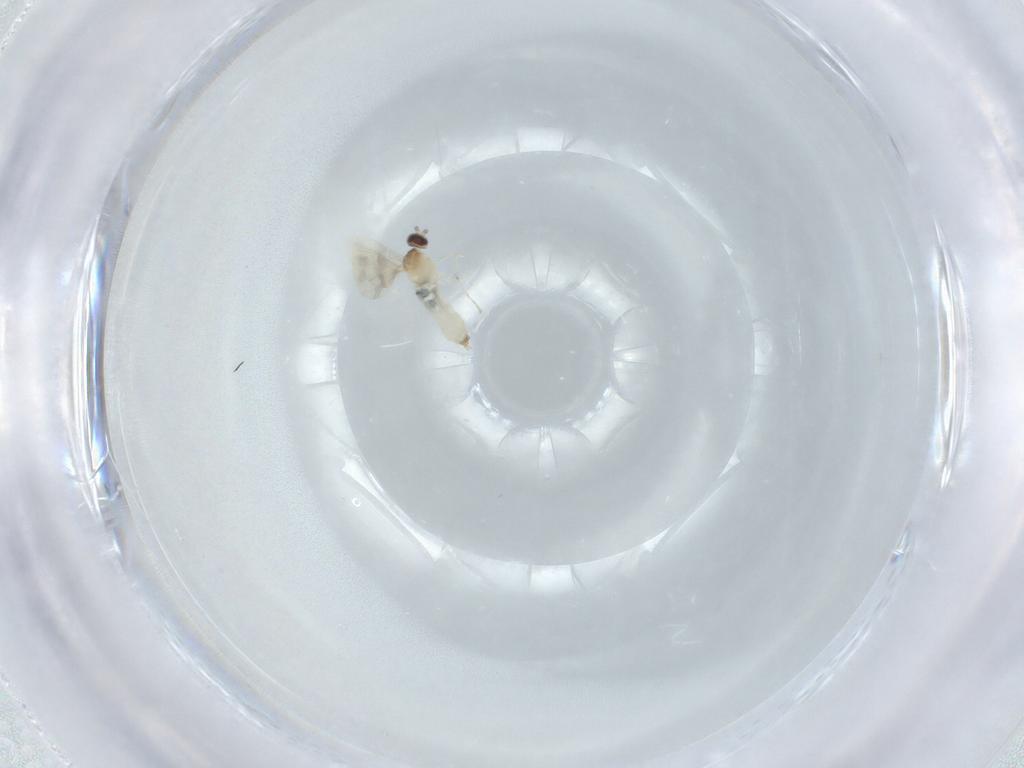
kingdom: Animalia
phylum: Arthropoda
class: Insecta
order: Diptera
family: Cecidomyiidae
